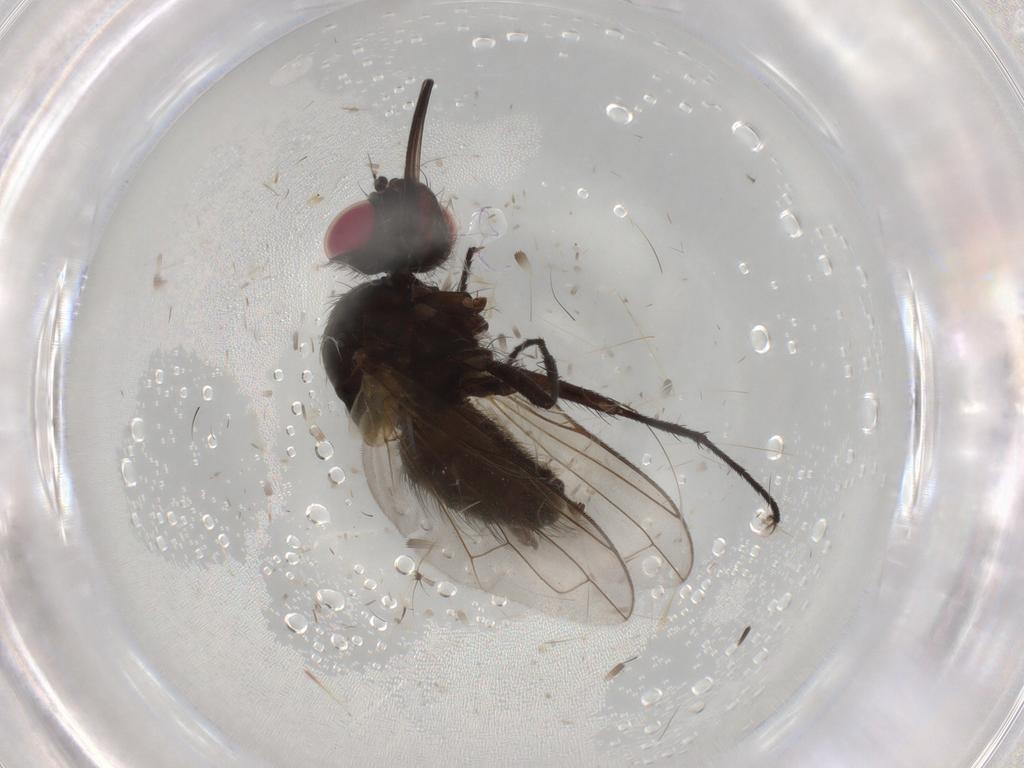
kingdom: Animalia
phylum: Arthropoda
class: Insecta
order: Diptera
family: Tachinidae
